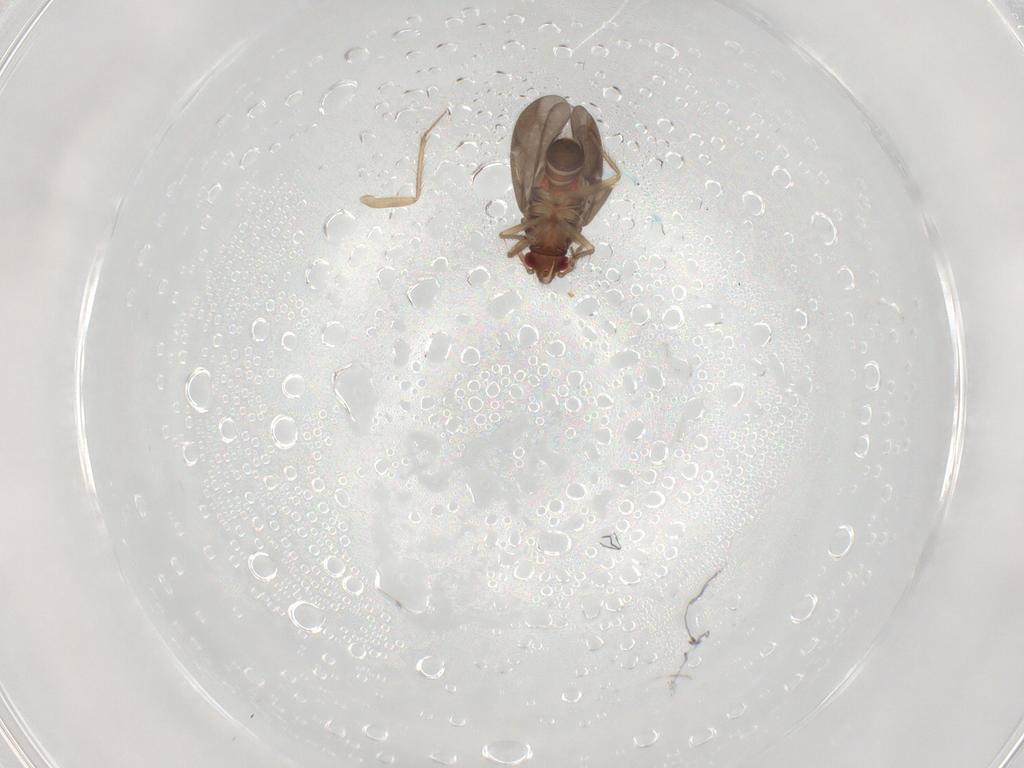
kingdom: Animalia
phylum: Arthropoda
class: Insecta
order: Hemiptera
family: Ceratocombidae
